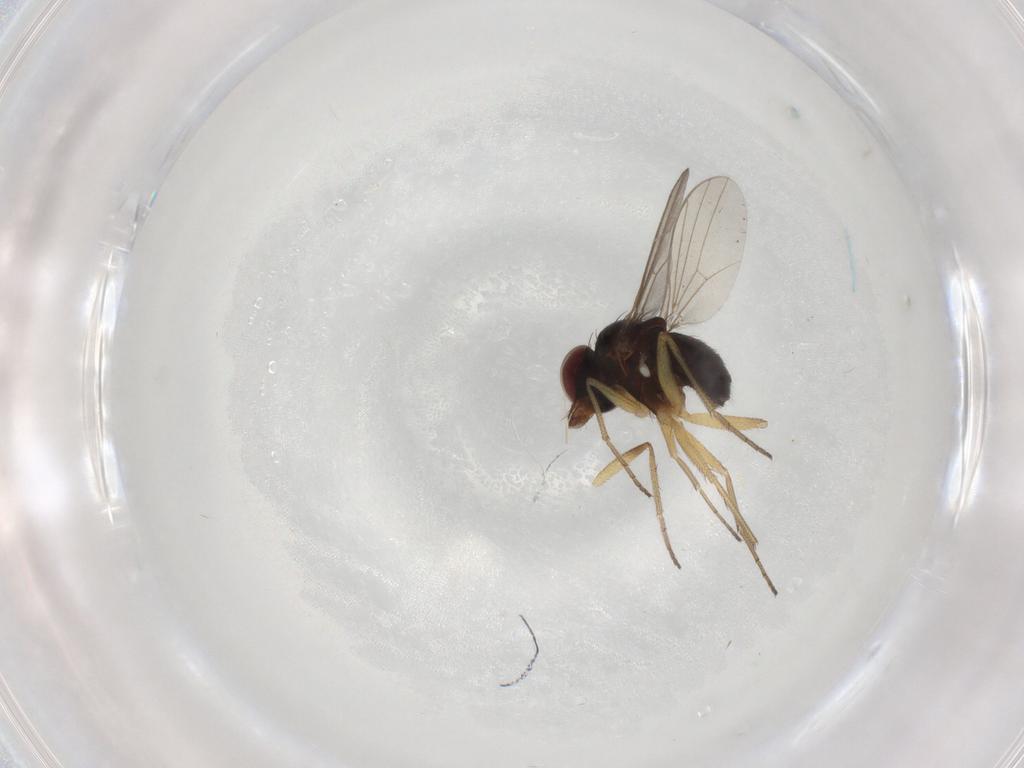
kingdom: Animalia
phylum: Arthropoda
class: Insecta
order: Diptera
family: Dolichopodidae
